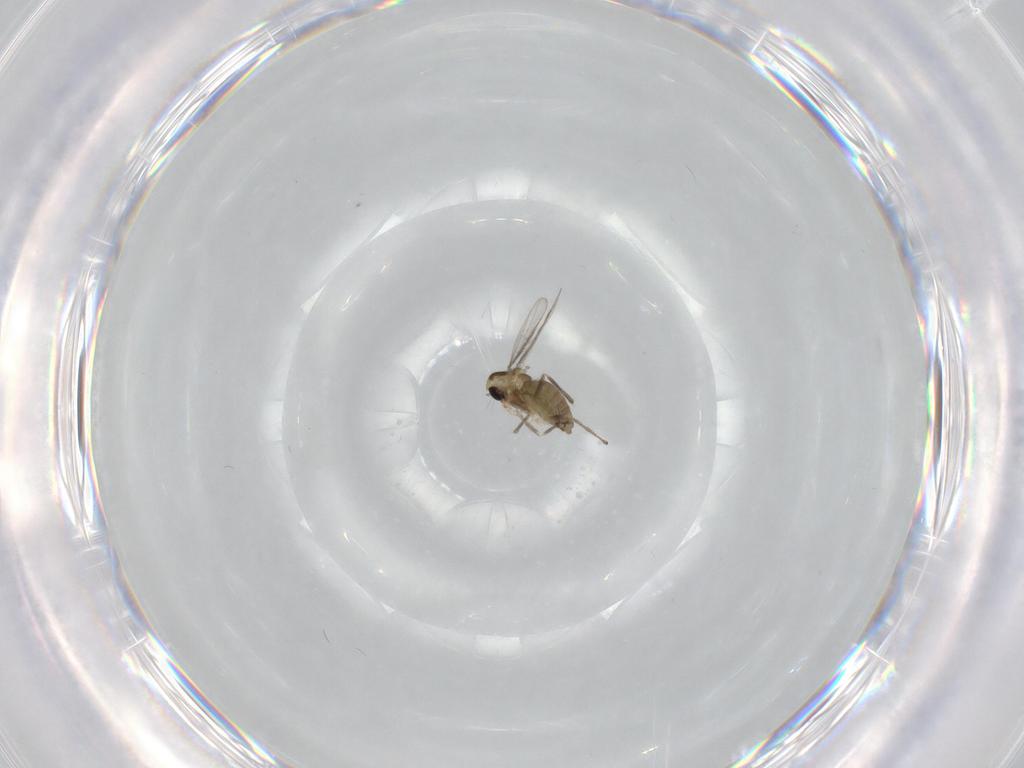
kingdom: Animalia
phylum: Arthropoda
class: Insecta
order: Diptera
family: Chironomidae
